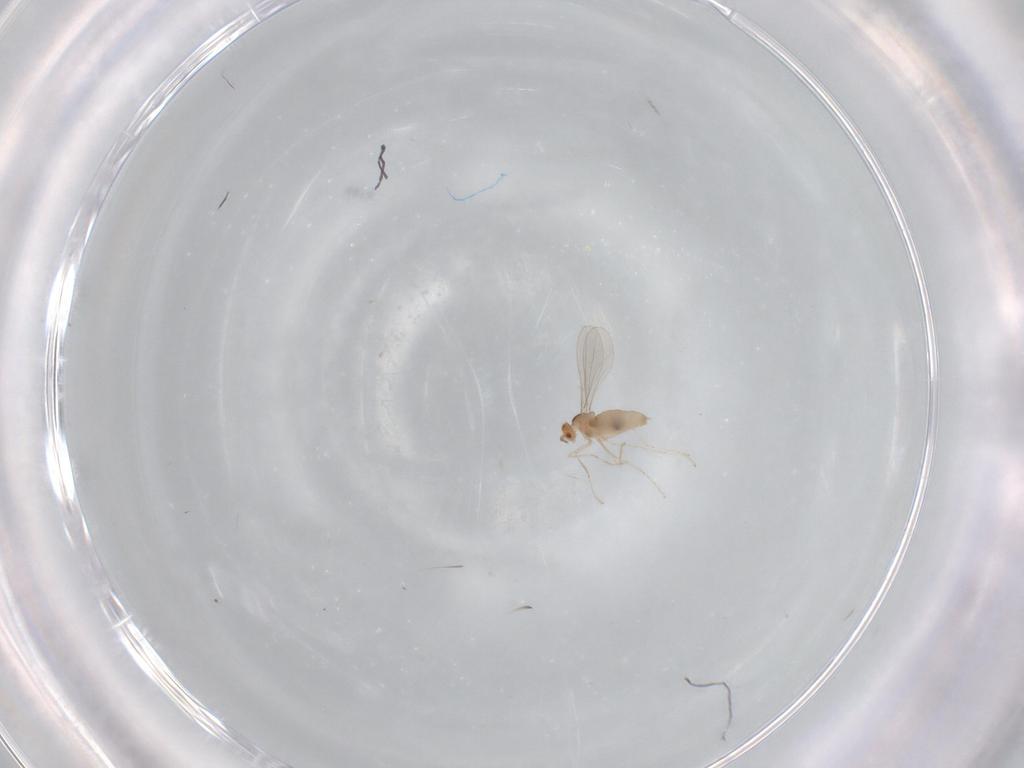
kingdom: Animalia
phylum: Arthropoda
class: Insecta
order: Diptera
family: Cecidomyiidae
